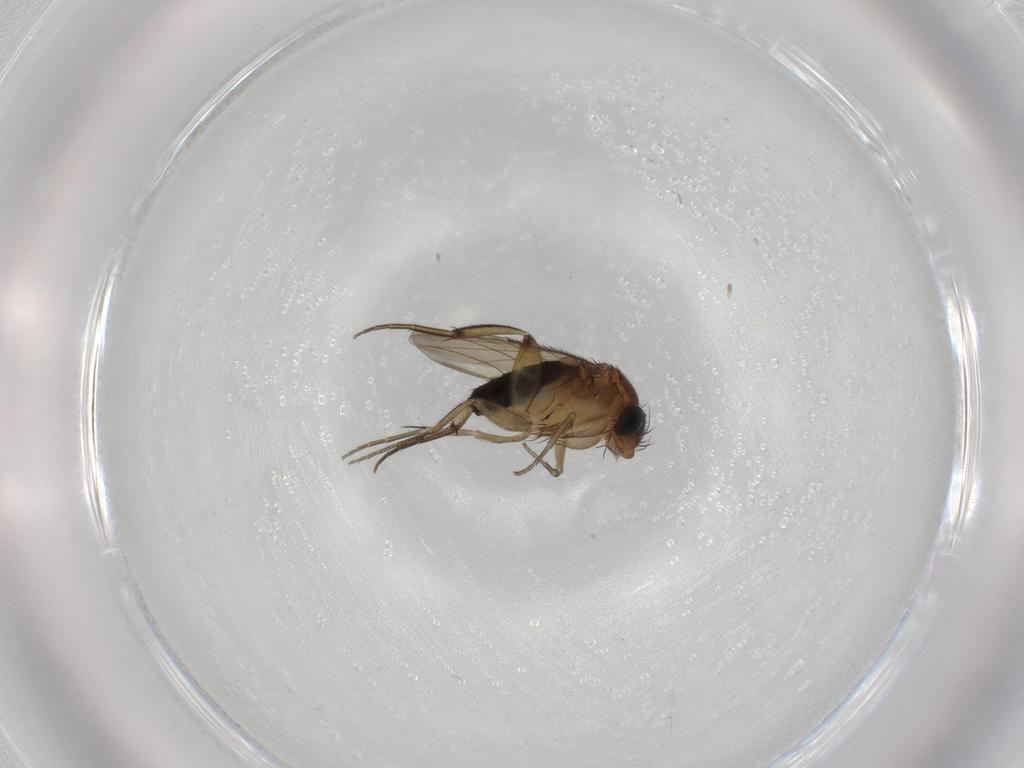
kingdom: Animalia
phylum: Arthropoda
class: Insecta
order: Diptera
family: Sciaridae
